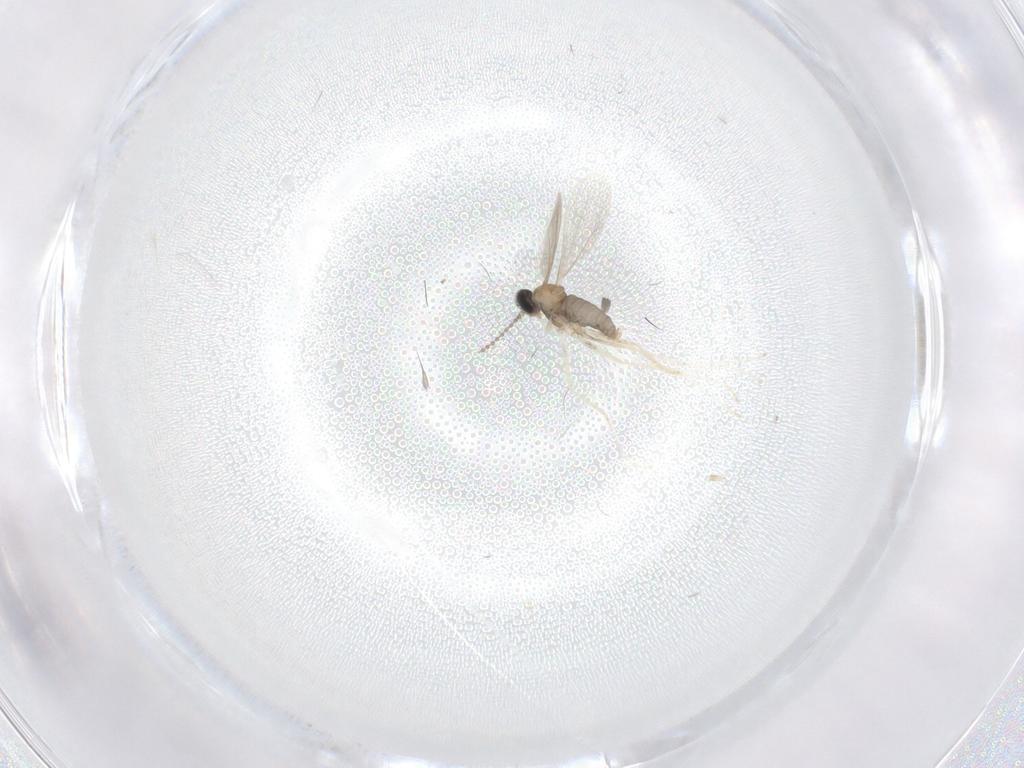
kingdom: Animalia
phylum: Arthropoda
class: Insecta
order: Diptera
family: Cecidomyiidae
